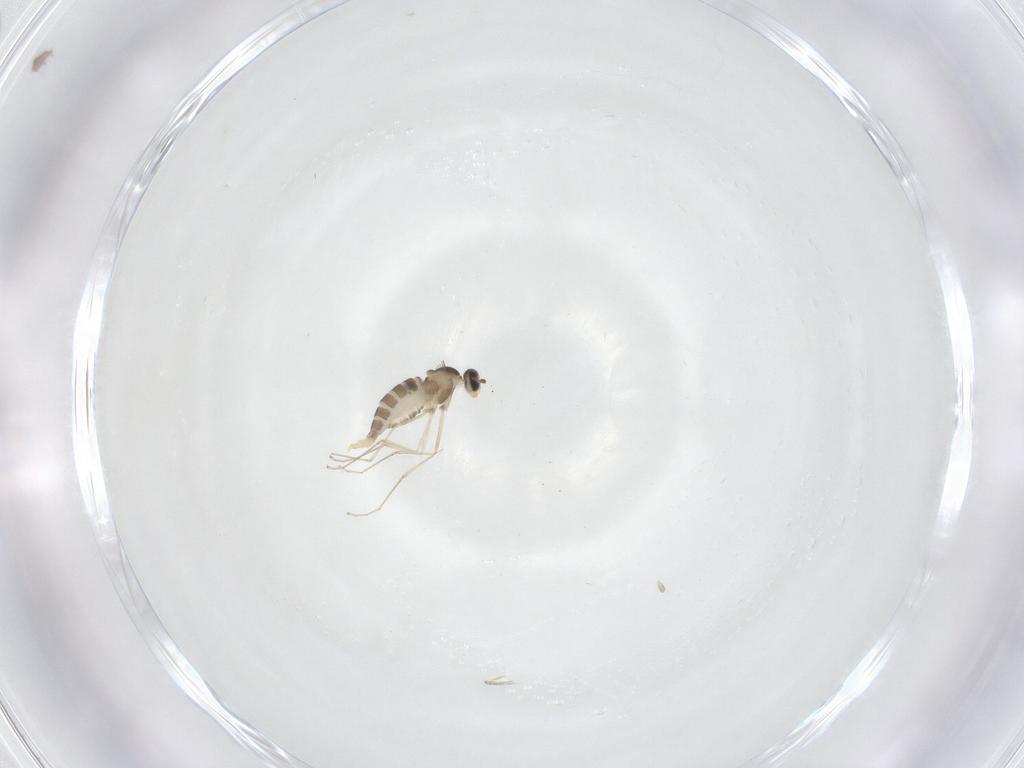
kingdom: Animalia
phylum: Arthropoda
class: Insecta
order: Diptera
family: Cecidomyiidae
